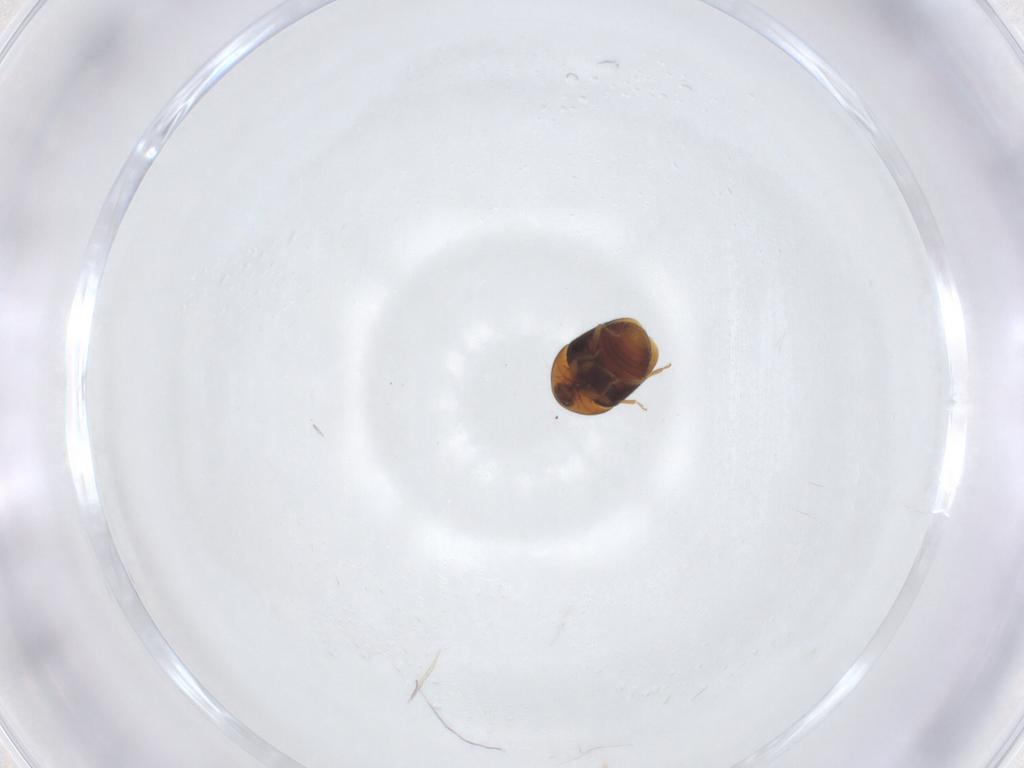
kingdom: Animalia
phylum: Arthropoda
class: Insecta
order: Coleoptera
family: Corylophidae
